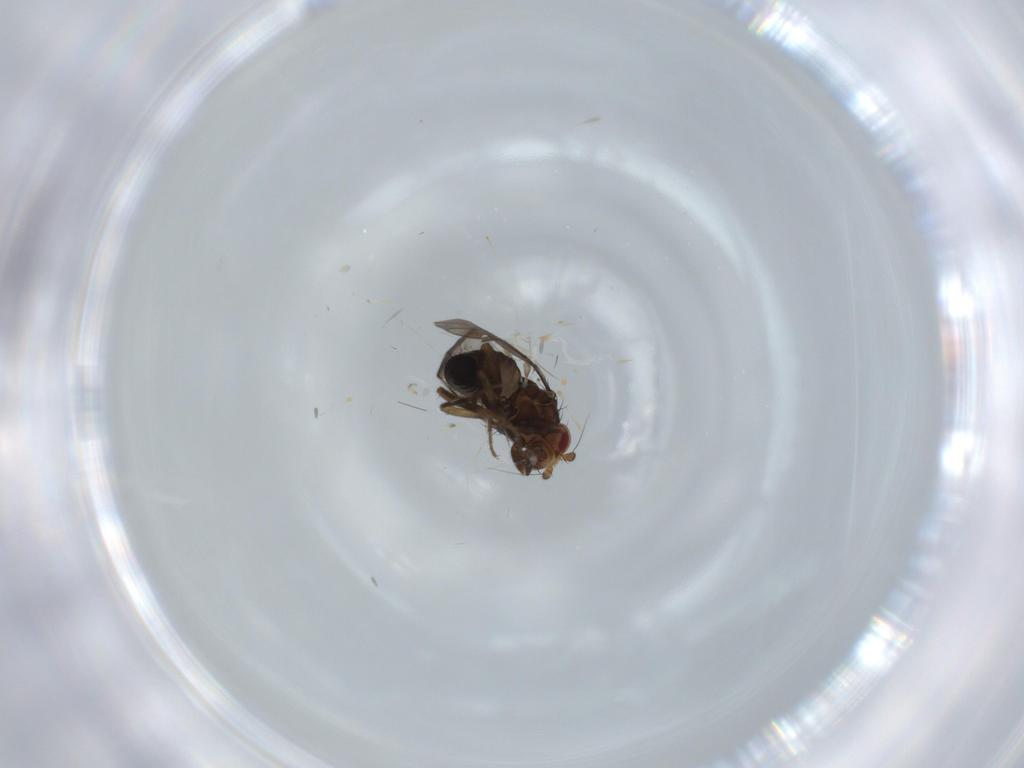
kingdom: Animalia
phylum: Arthropoda
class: Insecta
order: Diptera
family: Sphaeroceridae
